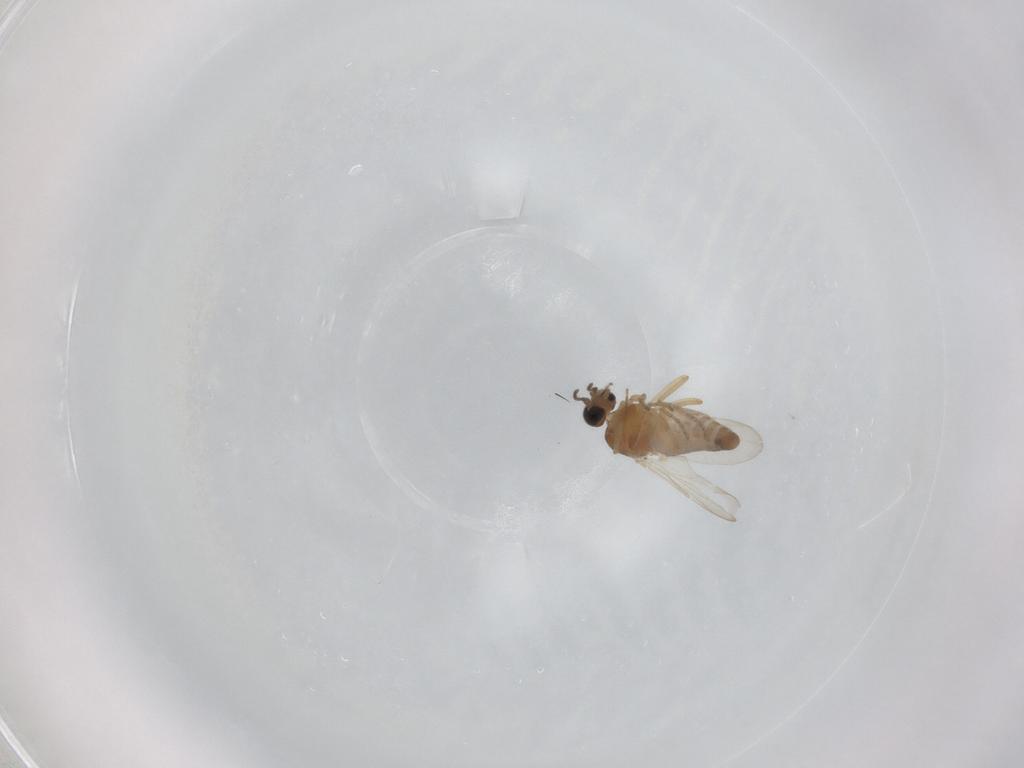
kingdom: Animalia
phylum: Arthropoda
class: Insecta
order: Diptera
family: Ceratopogonidae
